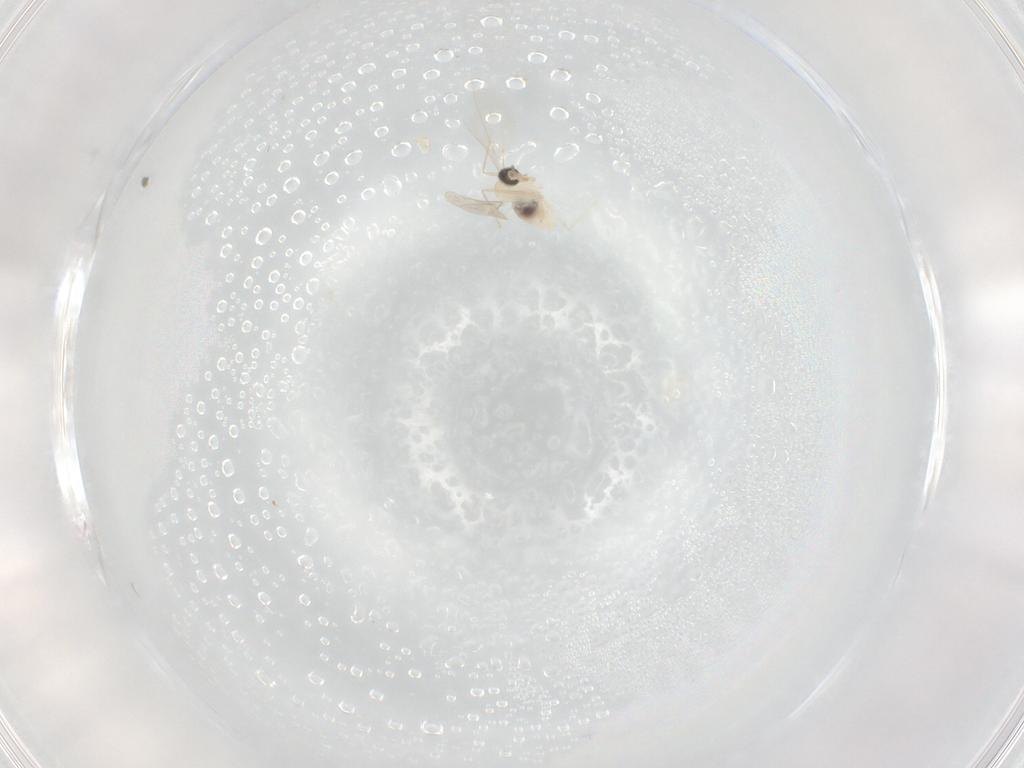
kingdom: Animalia
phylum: Arthropoda
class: Insecta
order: Diptera
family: Cecidomyiidae
